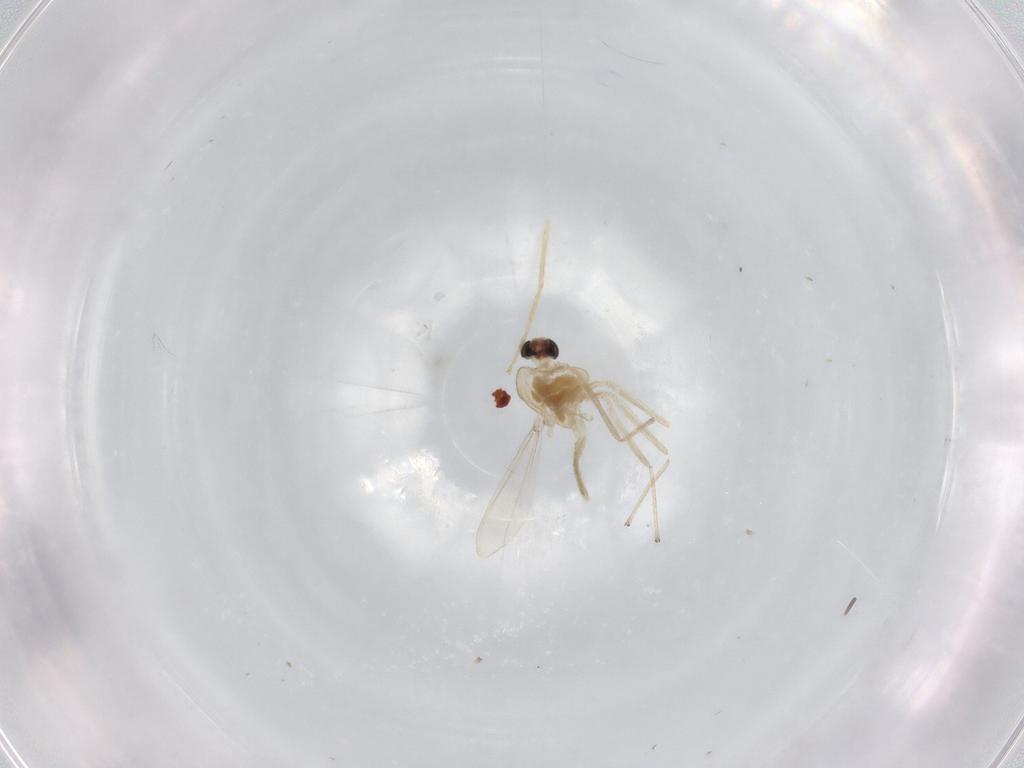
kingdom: Animalia
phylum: Arthropoda
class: Insecta
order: Diptera
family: Chironomidae
